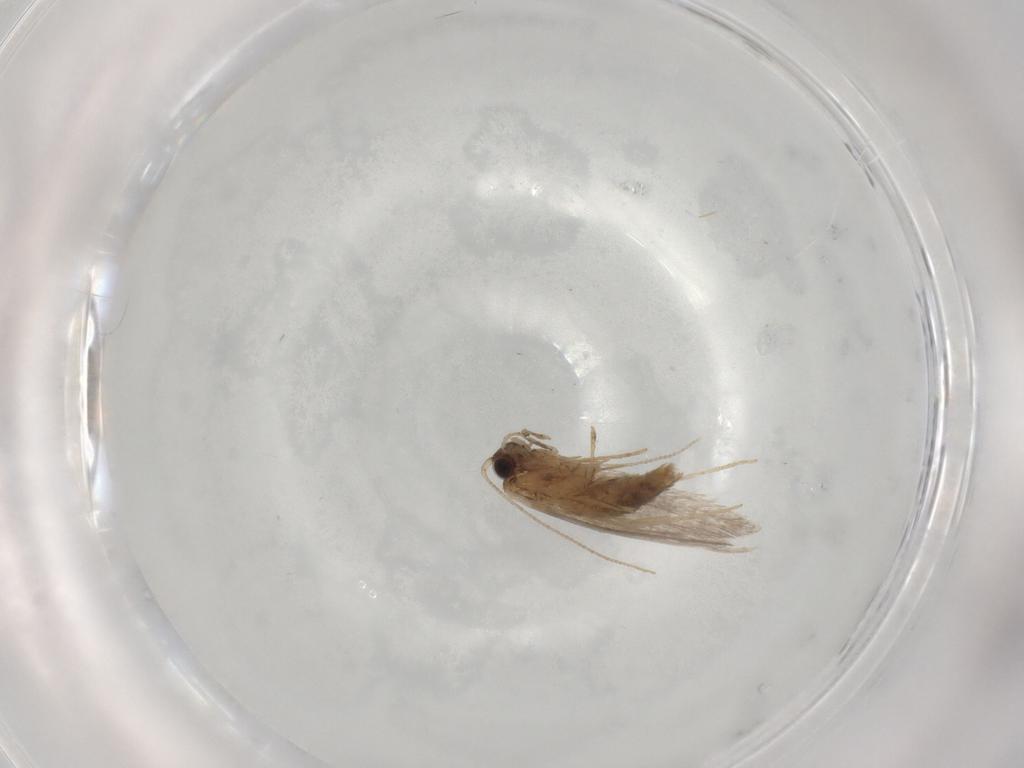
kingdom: Animalia
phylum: Arthropoda
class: Insecta
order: Lepidoptera
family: Tineidae
